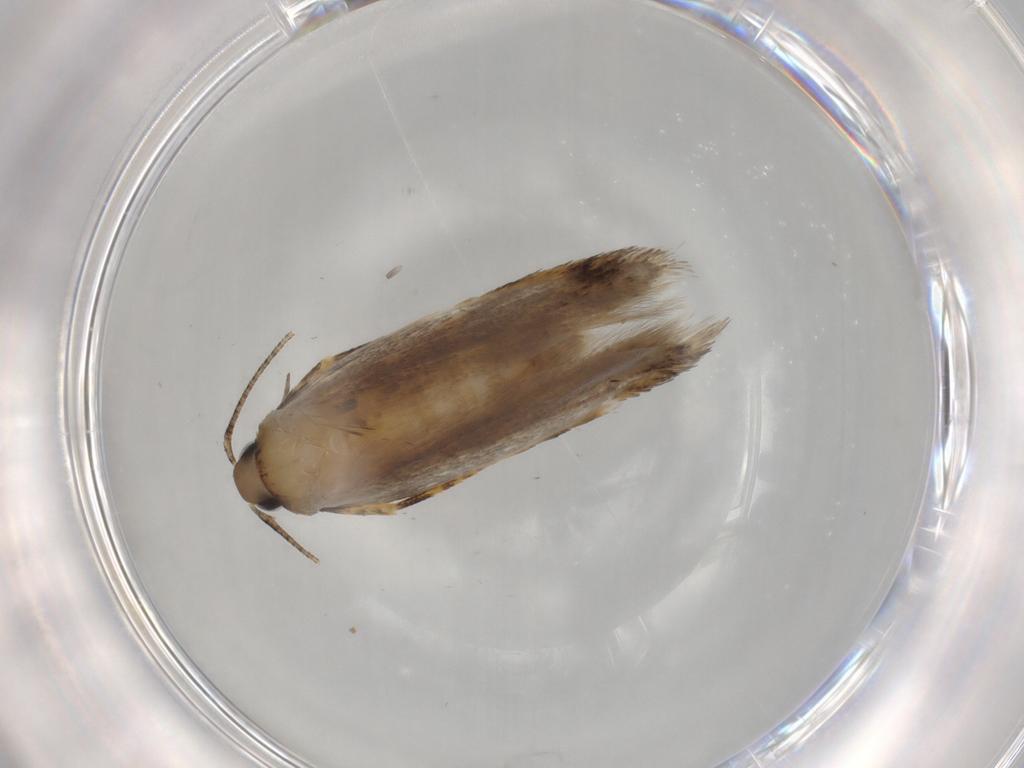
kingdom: Animalia
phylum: Arthropoda
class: Insecta
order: Lepidoptera
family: Autostichidae
